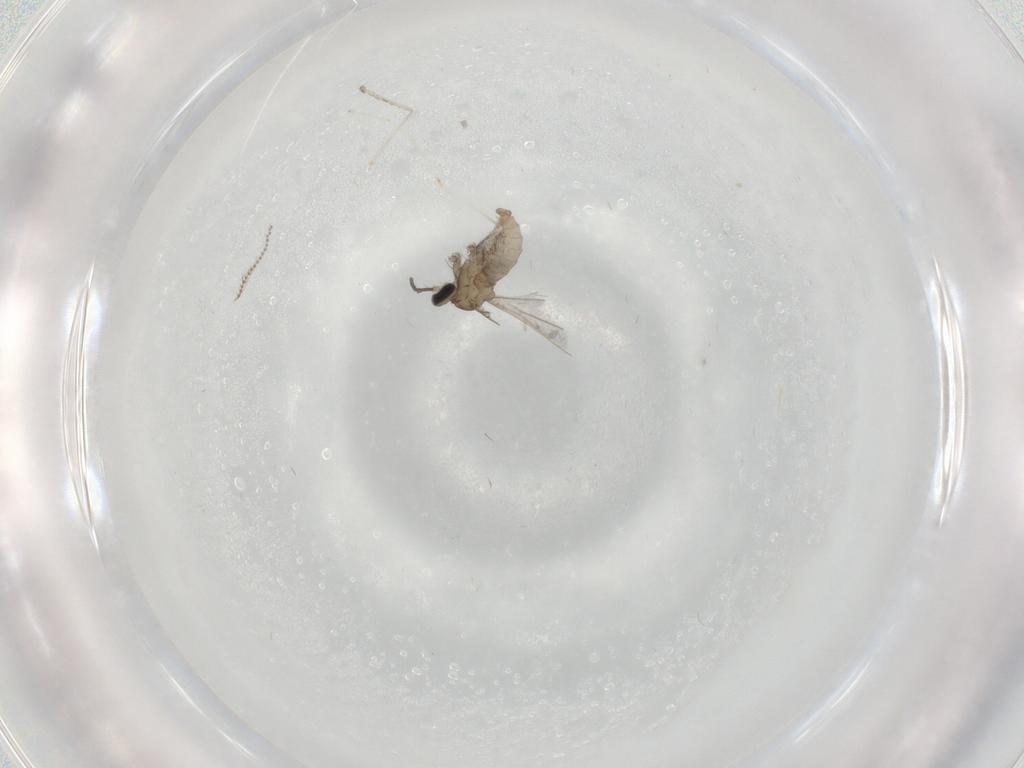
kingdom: Animalia
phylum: Arthropoda
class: Insecta
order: Diptera
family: Cecidomyiidae
